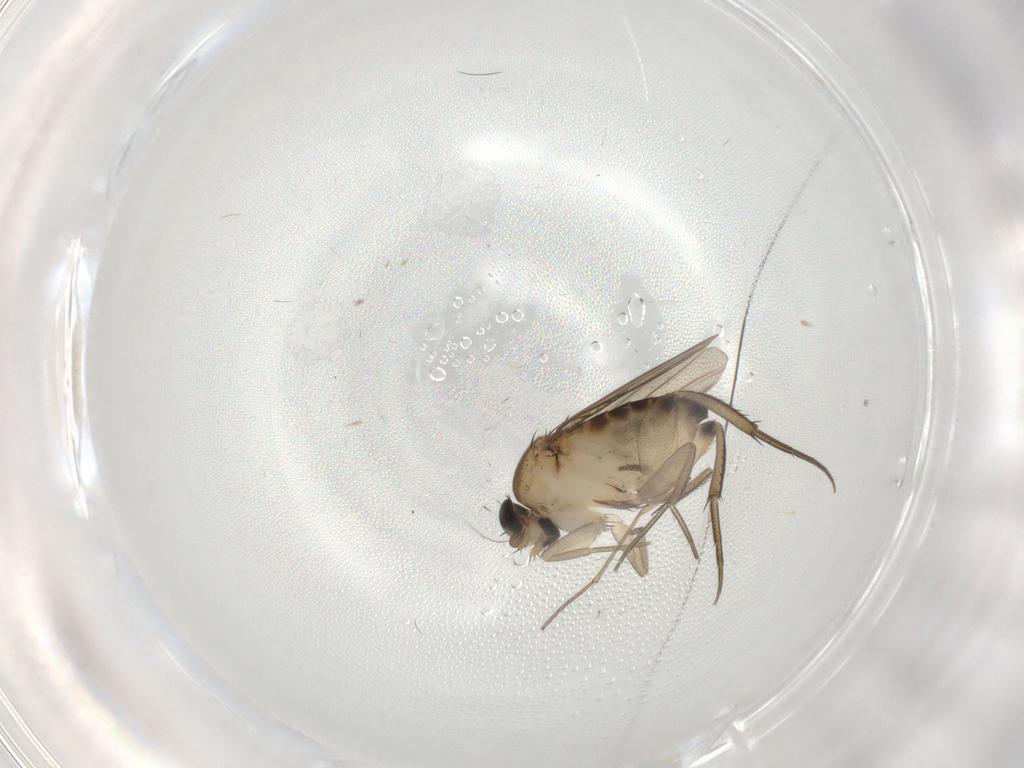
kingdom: Animalia
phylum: Arthropoda
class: Insecta
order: Diptera
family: Phoridae
